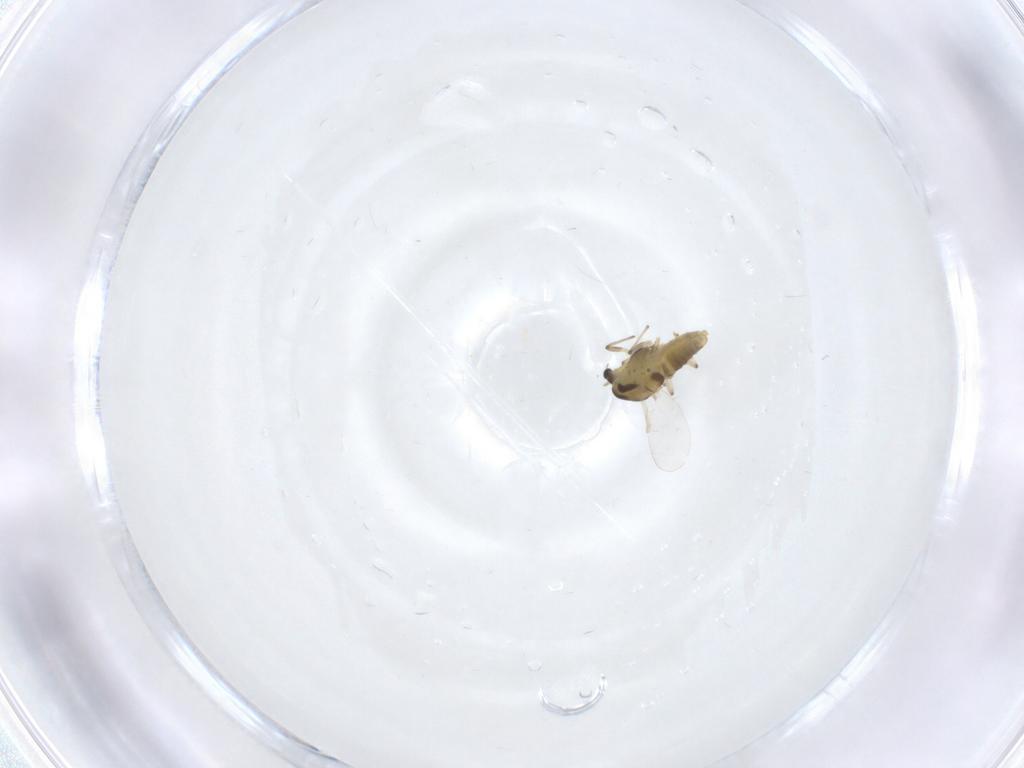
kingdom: Animalia
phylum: Arthropoda
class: Insecta
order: Diptera
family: Chironomidae
